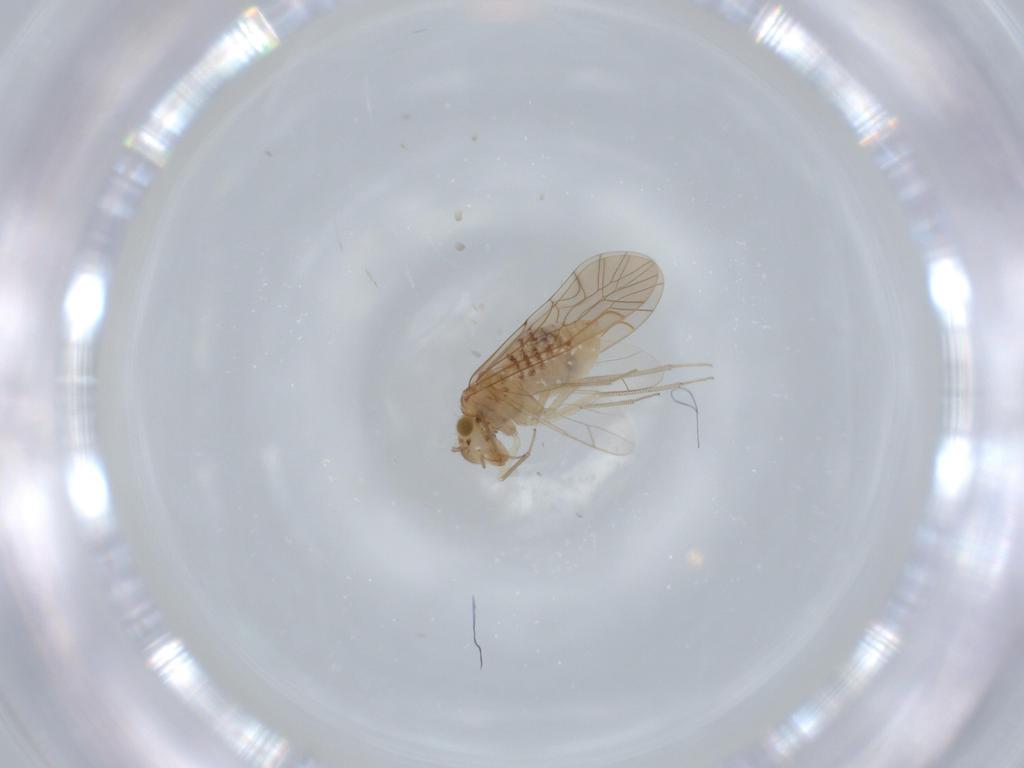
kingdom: Animalia
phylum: Arthropoda
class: Insecta
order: Psocodea
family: Lachesillidae
